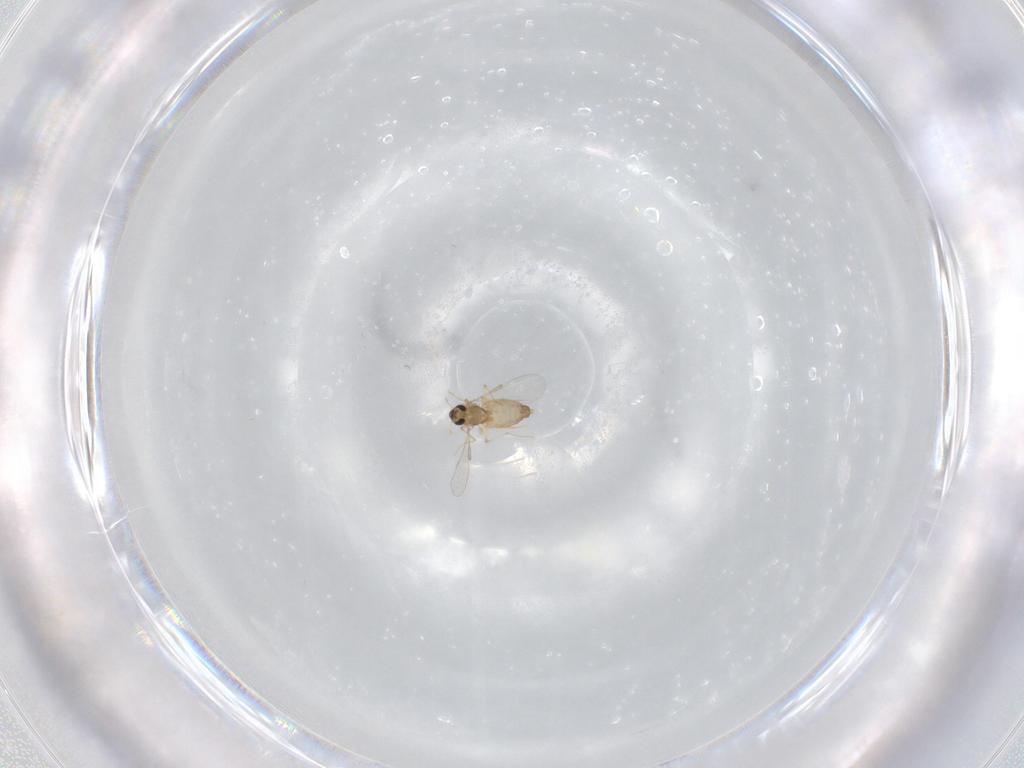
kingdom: Animalia
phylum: Arthropoda
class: Insecta
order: Diptera
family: Chironomidae
